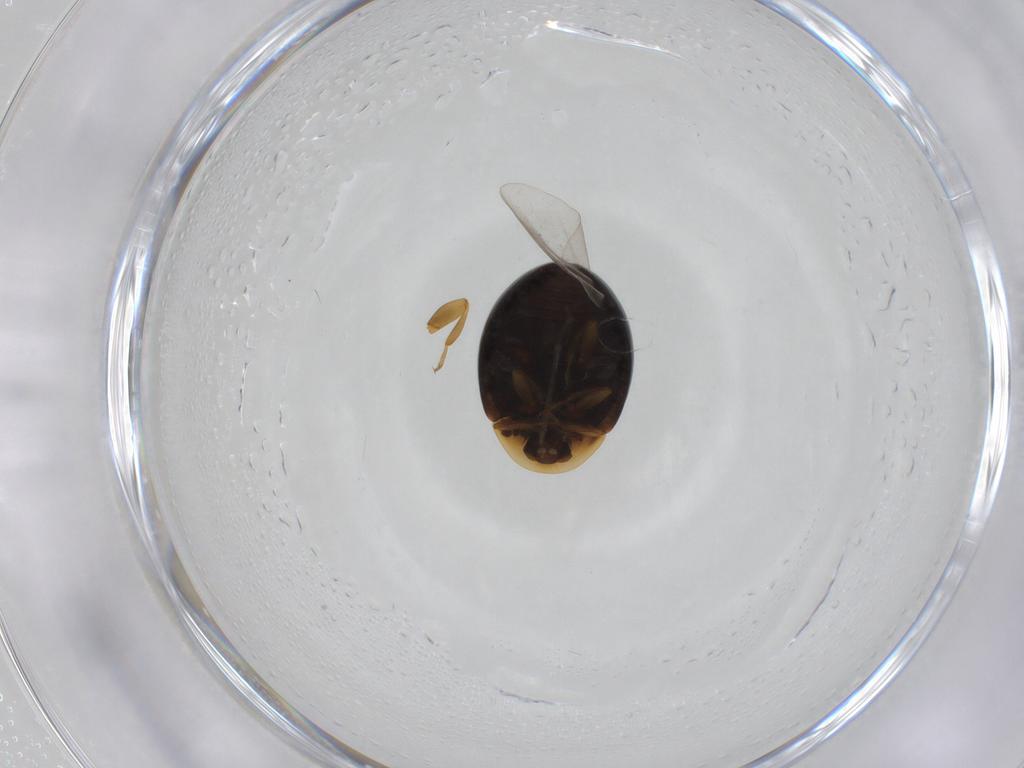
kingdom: Animalia
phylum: Arthropoda
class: Insecta
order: Coleoptera
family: Corylophidae
